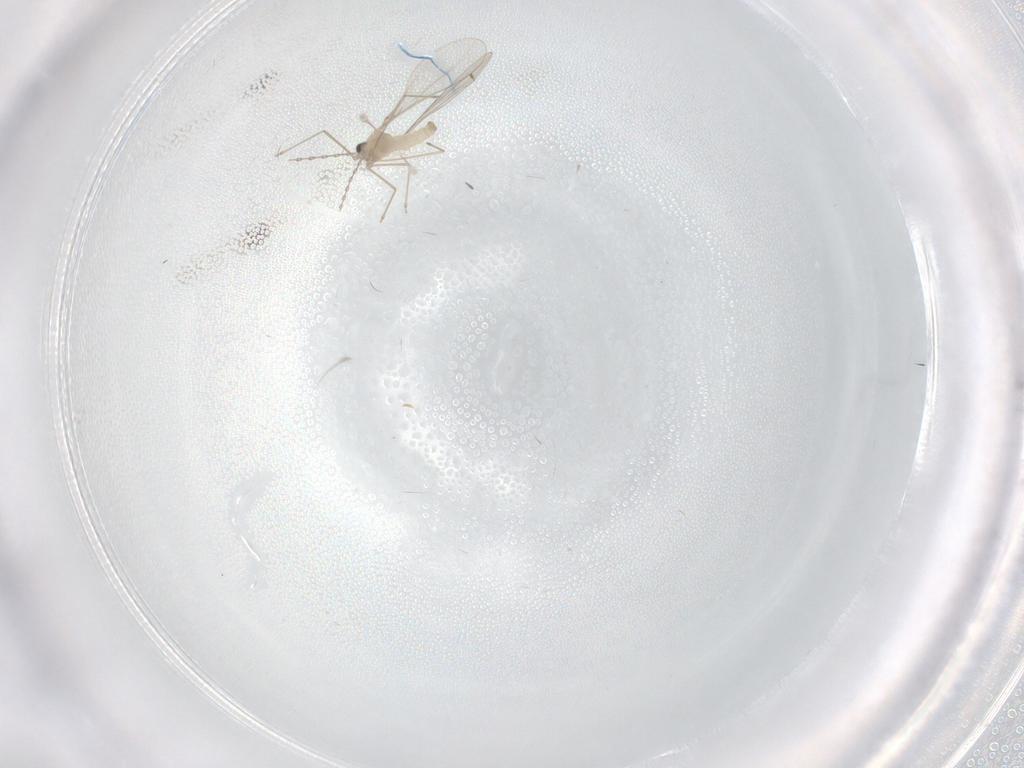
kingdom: Animalia
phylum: Arthropoda
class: Insecta
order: Diptera
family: Cecidomyiidae
